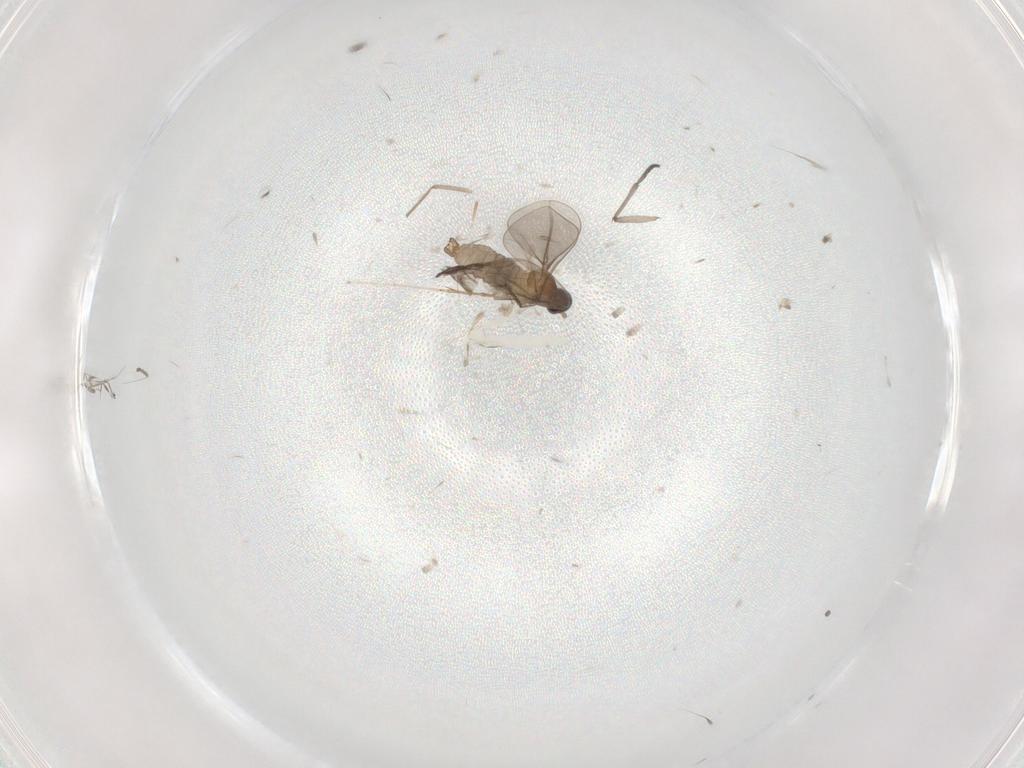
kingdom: Animalia
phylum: Arthropoda
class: Insecta
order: Diptera
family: Cecidomyiidae
